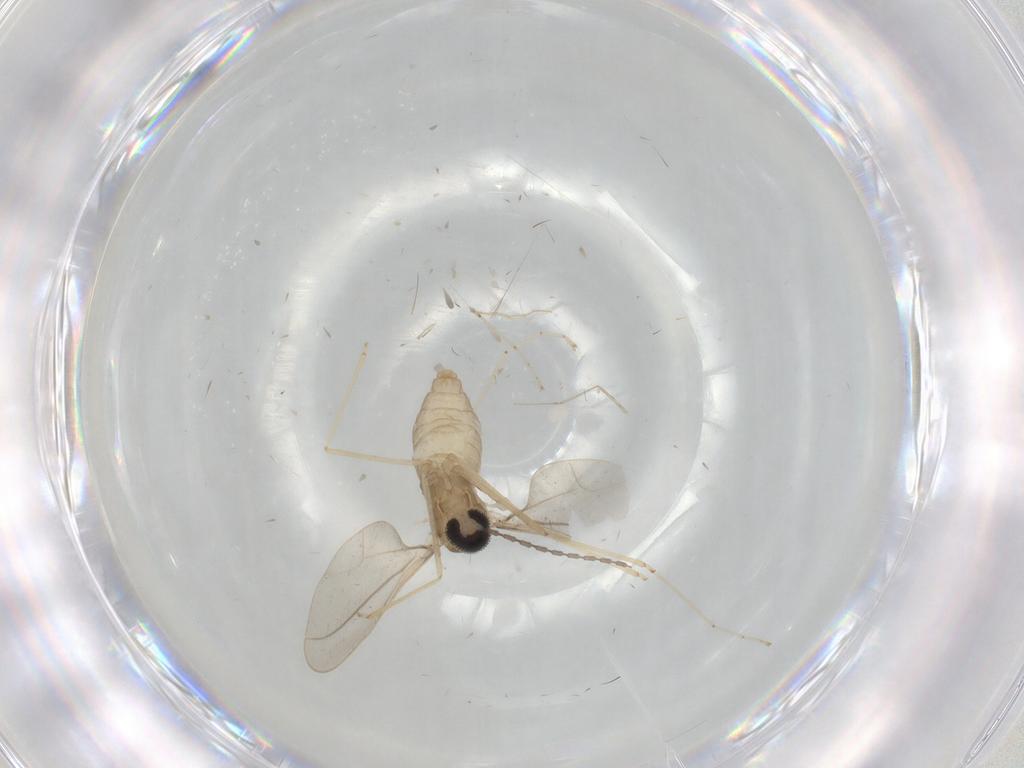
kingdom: Animalia
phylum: Arthropoda
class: Insecta
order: Diptera
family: Cecidomyiidae
